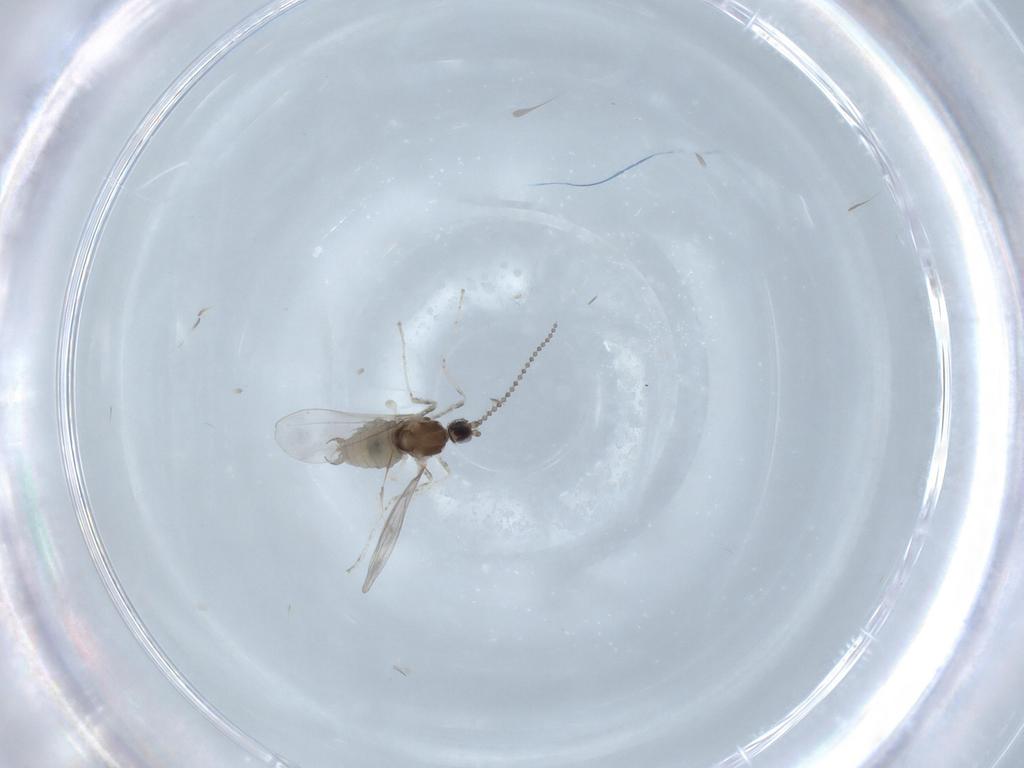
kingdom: Animalia
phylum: Arthropoda
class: Insecta
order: Diptera
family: Cecidomyiidae
